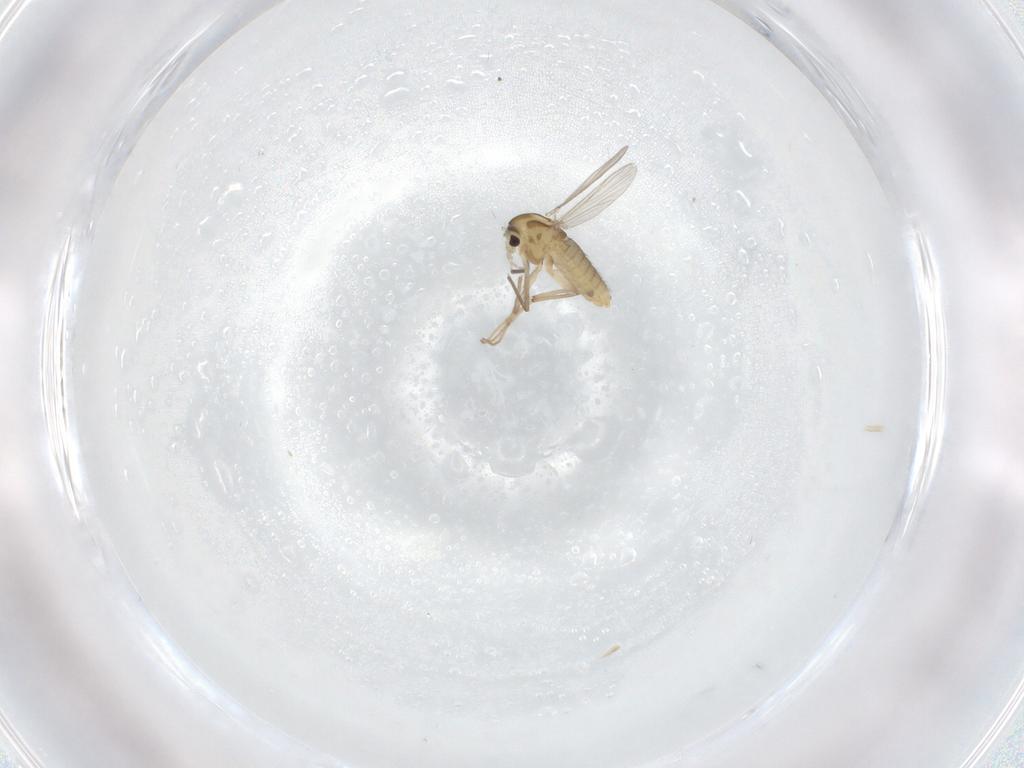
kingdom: Animalia
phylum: Arthropoda
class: Insecta
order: Diptera
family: Chironomidae
